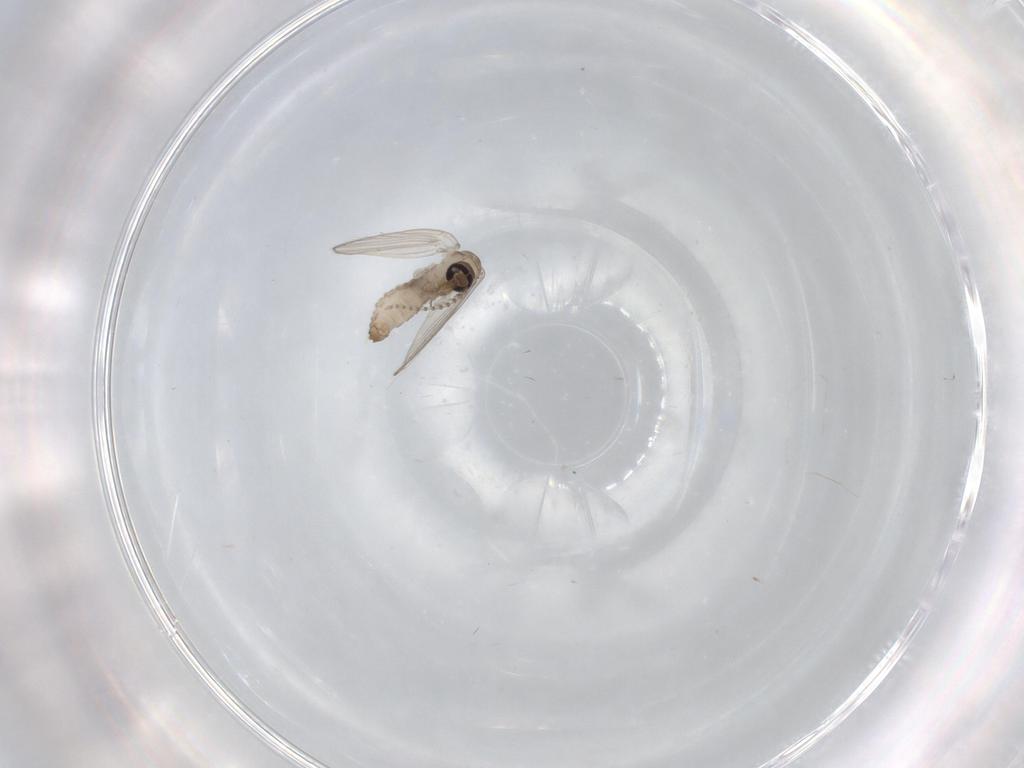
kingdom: Animalia
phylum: Arthropoda
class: Insecta
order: Diptera
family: Psychodidae
